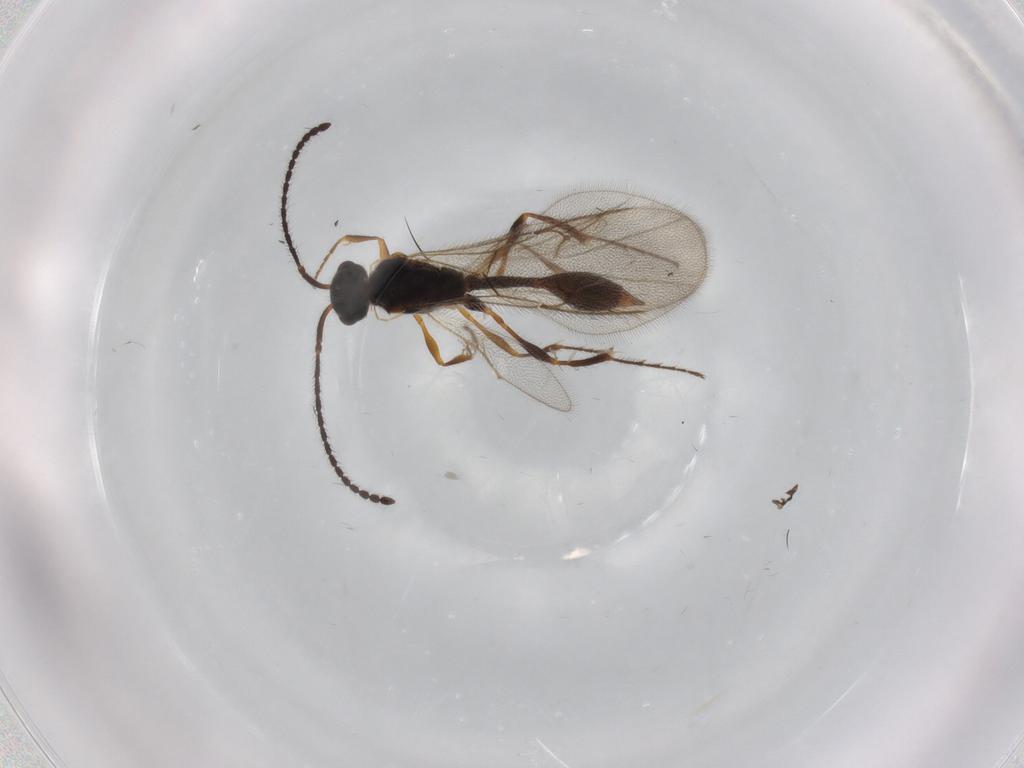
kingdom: Animalia
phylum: Arthropoda
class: Insecta
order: Hymenoptera
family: Diapriidae
